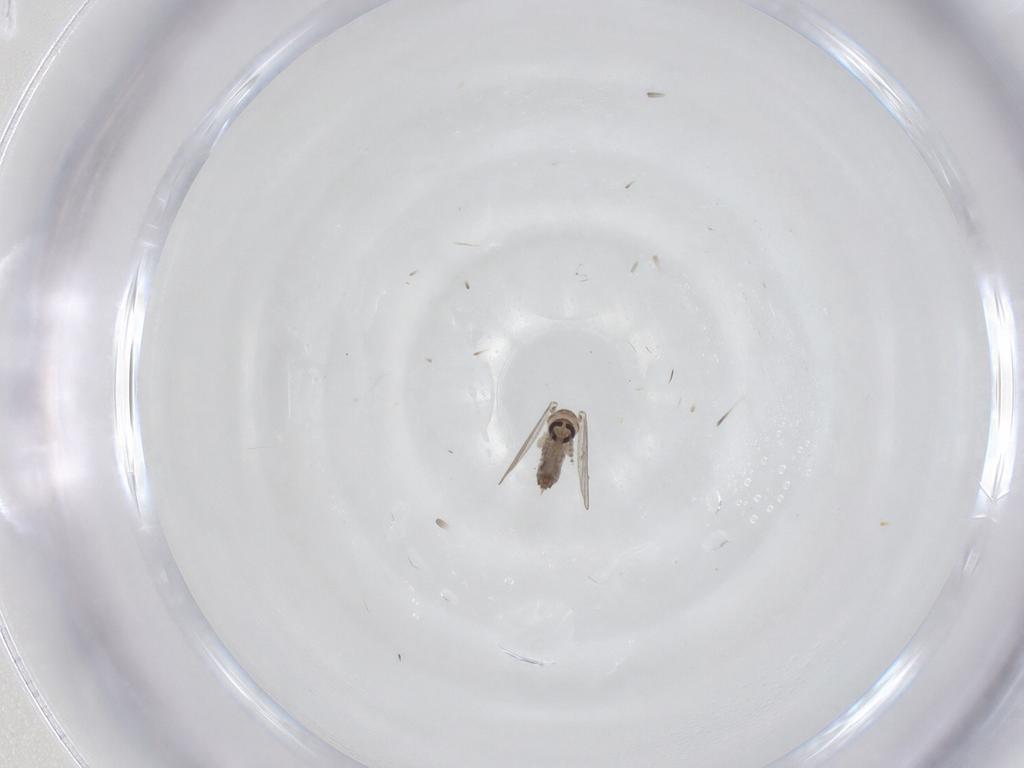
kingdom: Animalia
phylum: Arthropoda
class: Insecta
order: Diptera
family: Psychodidae
